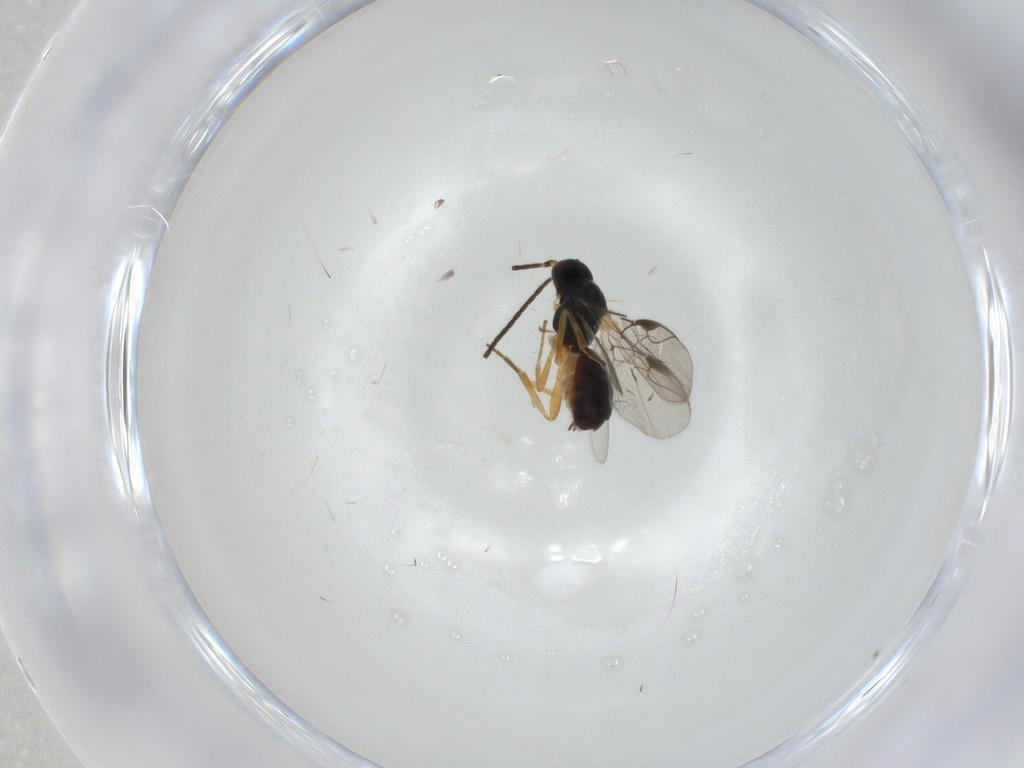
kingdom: Animalia
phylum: Arthropoda
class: Insecta
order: Hymenoptera
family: Braconidae
